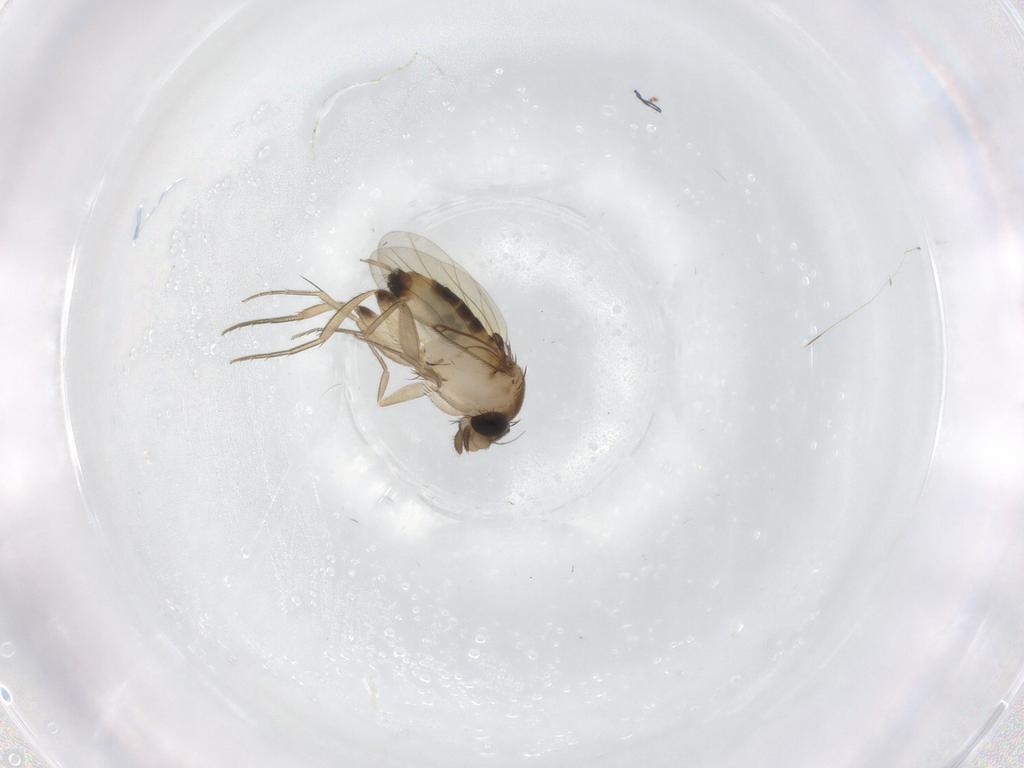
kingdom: Animalia
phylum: Arthropoda
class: Insecta
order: Diptera
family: Phoridae
